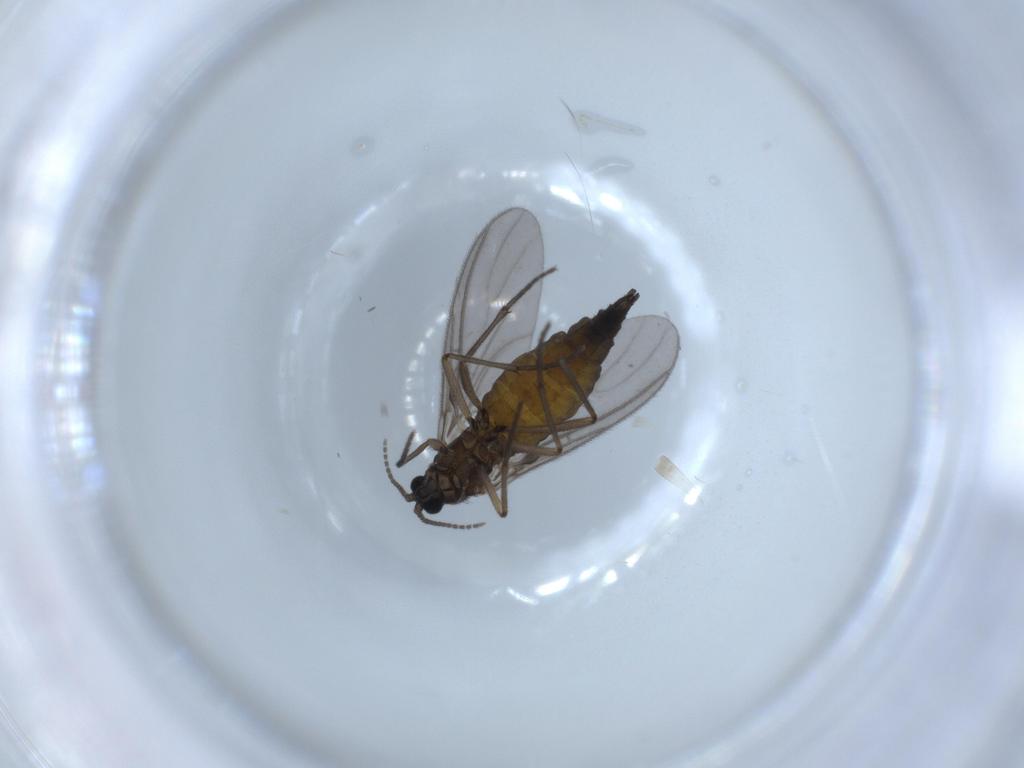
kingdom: Animalia
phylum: Arthropoda
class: Insecta
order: Diptera
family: Sciaridae
